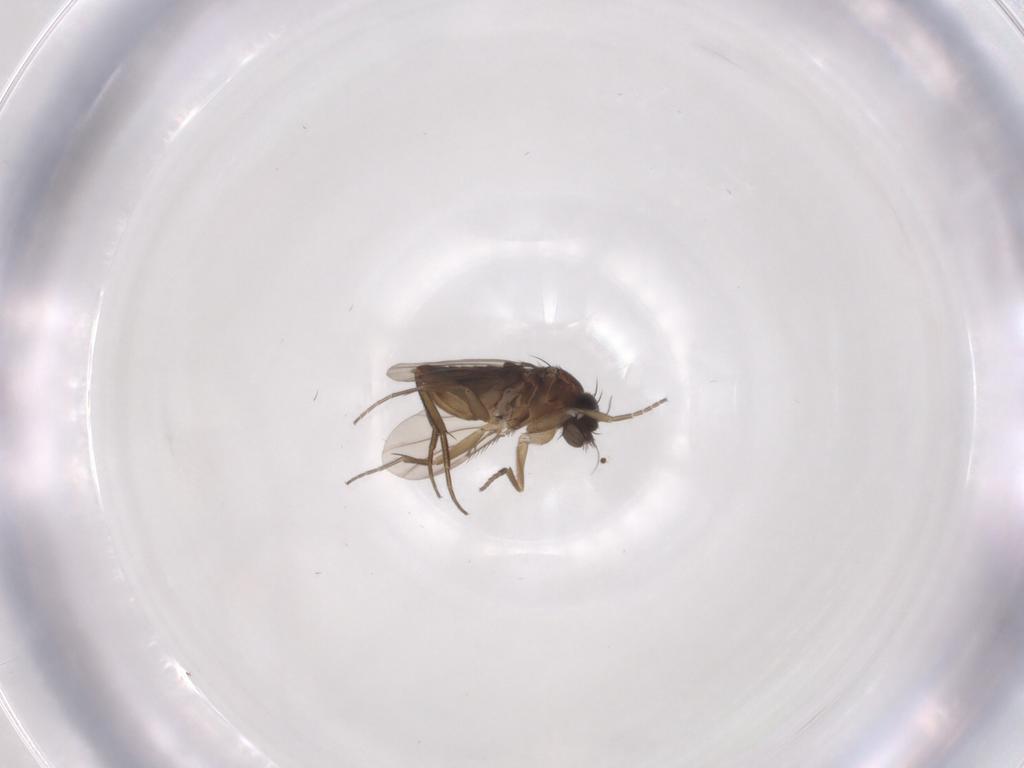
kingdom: Animalia
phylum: Arthropoda
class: Insecta
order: Diptera
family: Phoridae
